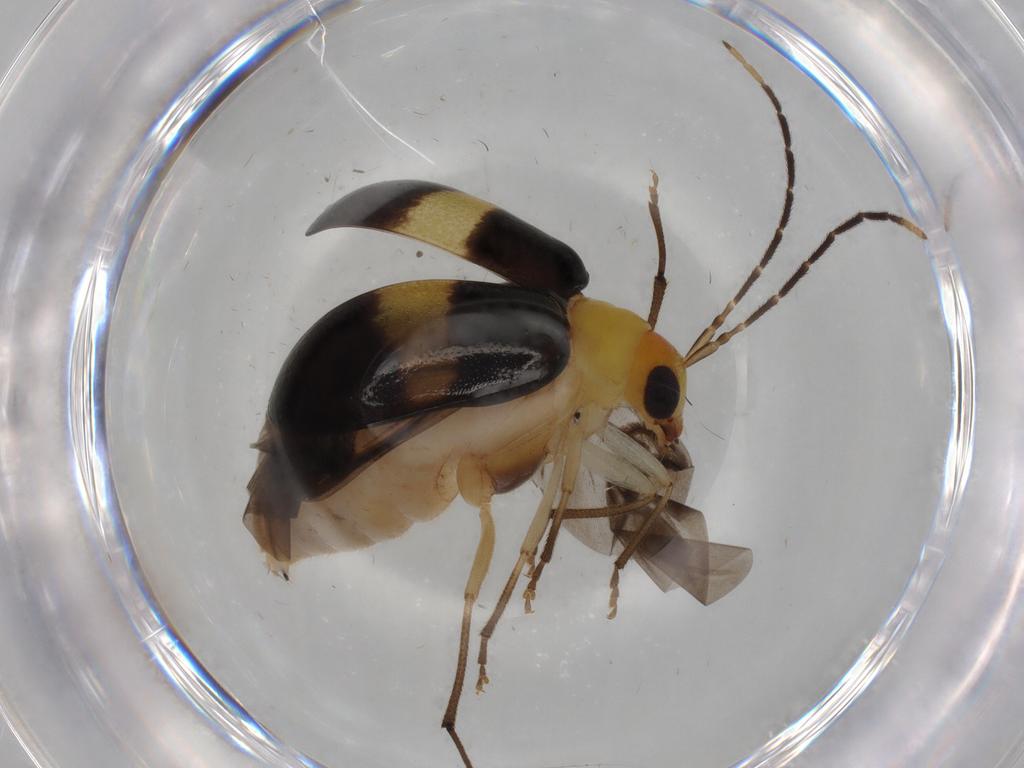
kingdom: Animalia
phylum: Arthropoda
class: Insecta
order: Coleoptera
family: Chrysomelidae
